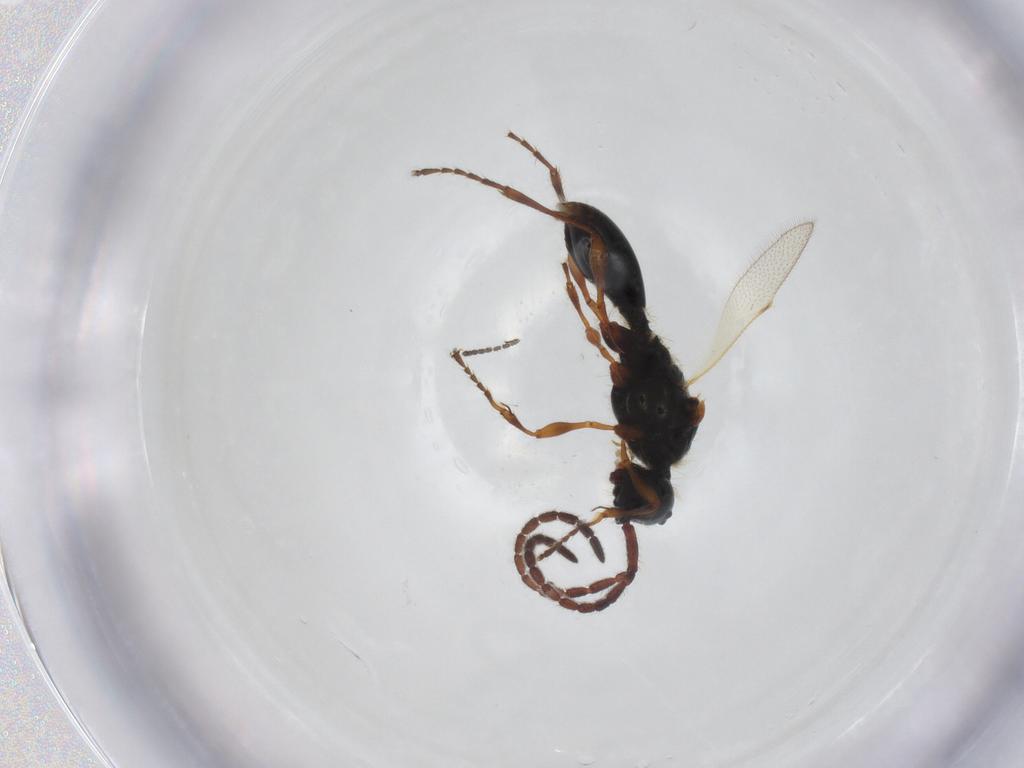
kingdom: Animalia
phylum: Arthropoda
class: Insecta
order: Hymenoptera
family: Diapriidae
